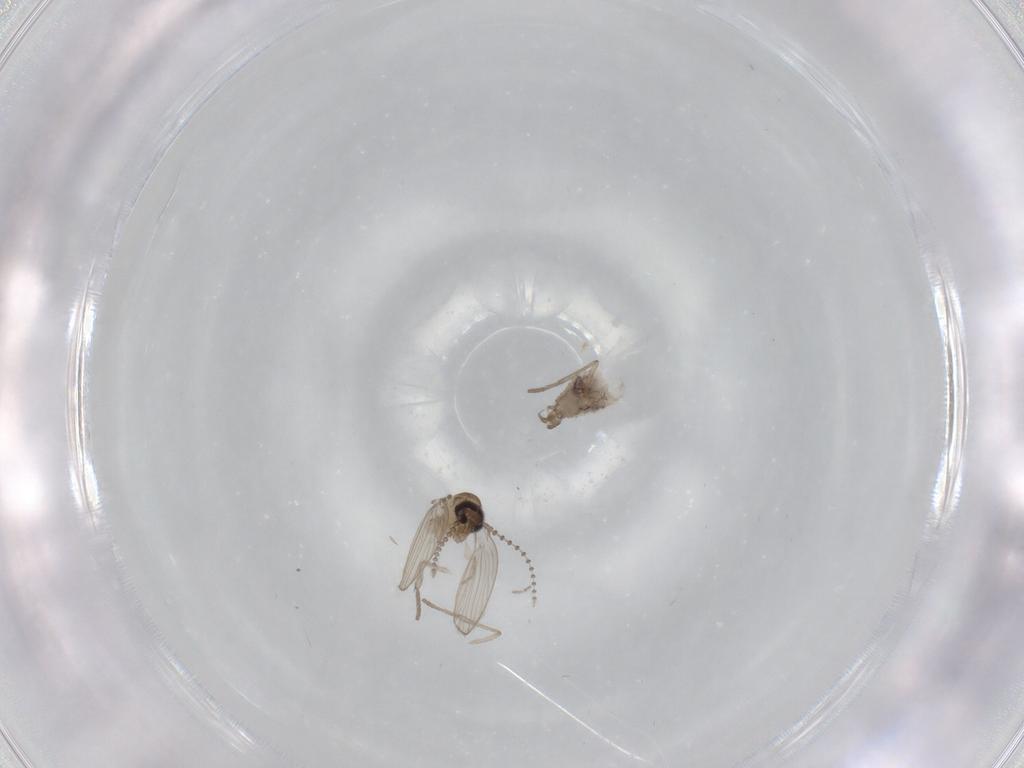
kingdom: Animalia
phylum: Arthropoda
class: Insecta
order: Diptera
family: Psychodidae
